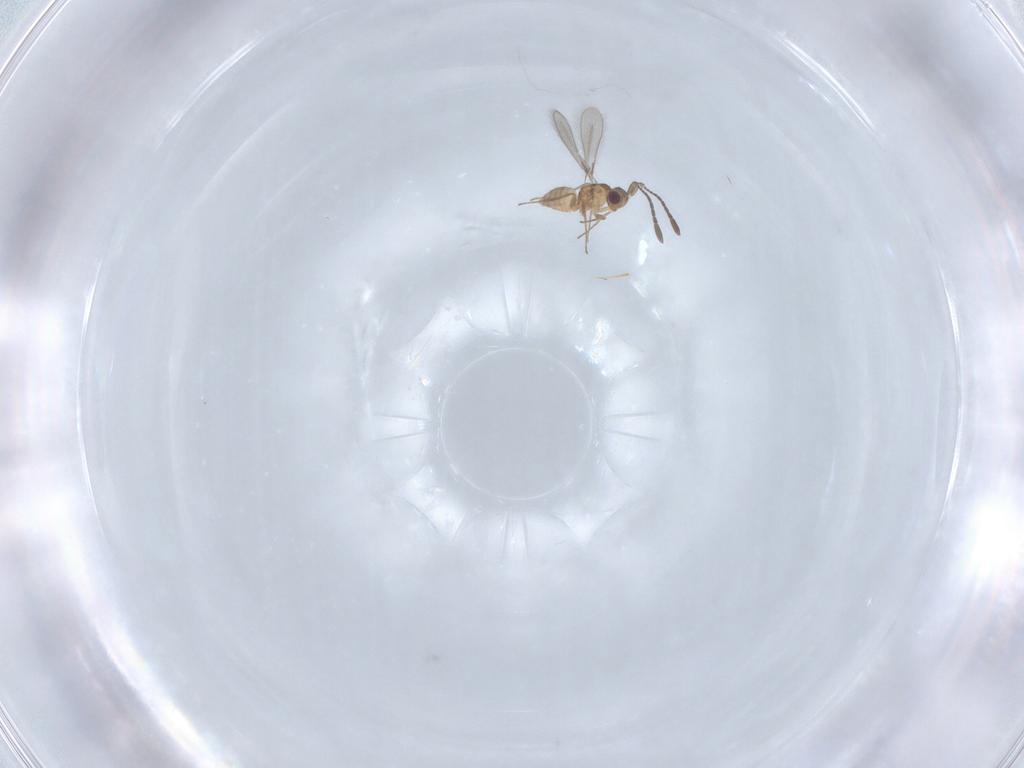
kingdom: Animalia
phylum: Arthropoda
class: Insecta
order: Hymenoptera
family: Mymaridae
